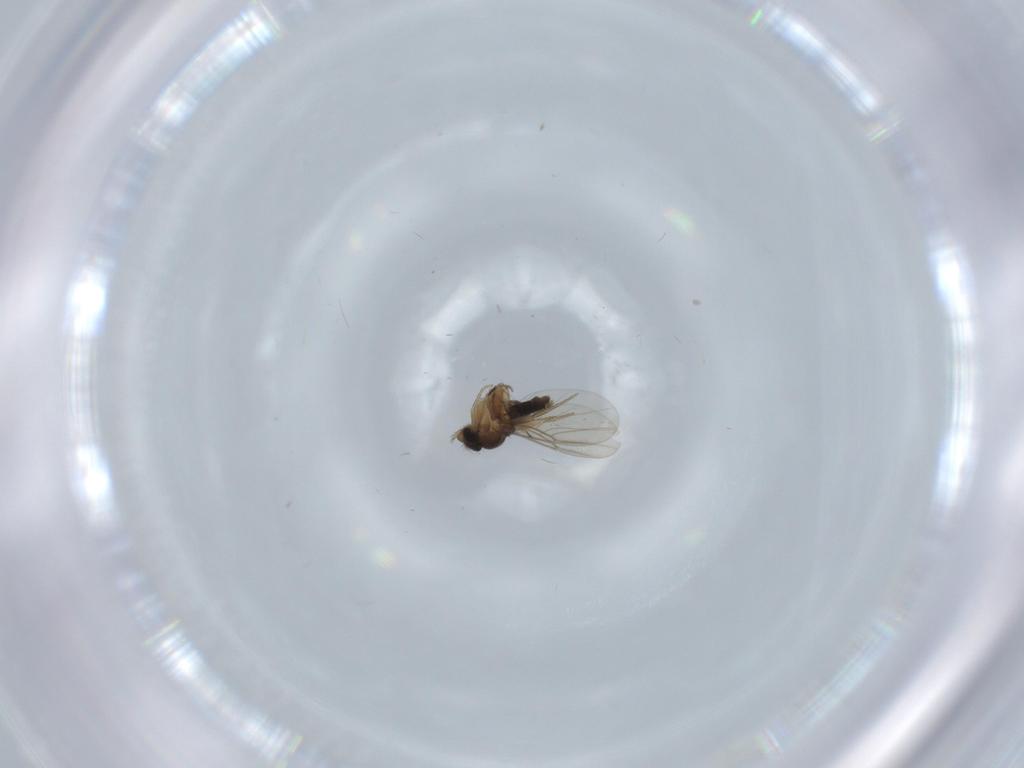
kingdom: Animalia
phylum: Arthropoda
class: Insecta
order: Diptera
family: Phoridae
